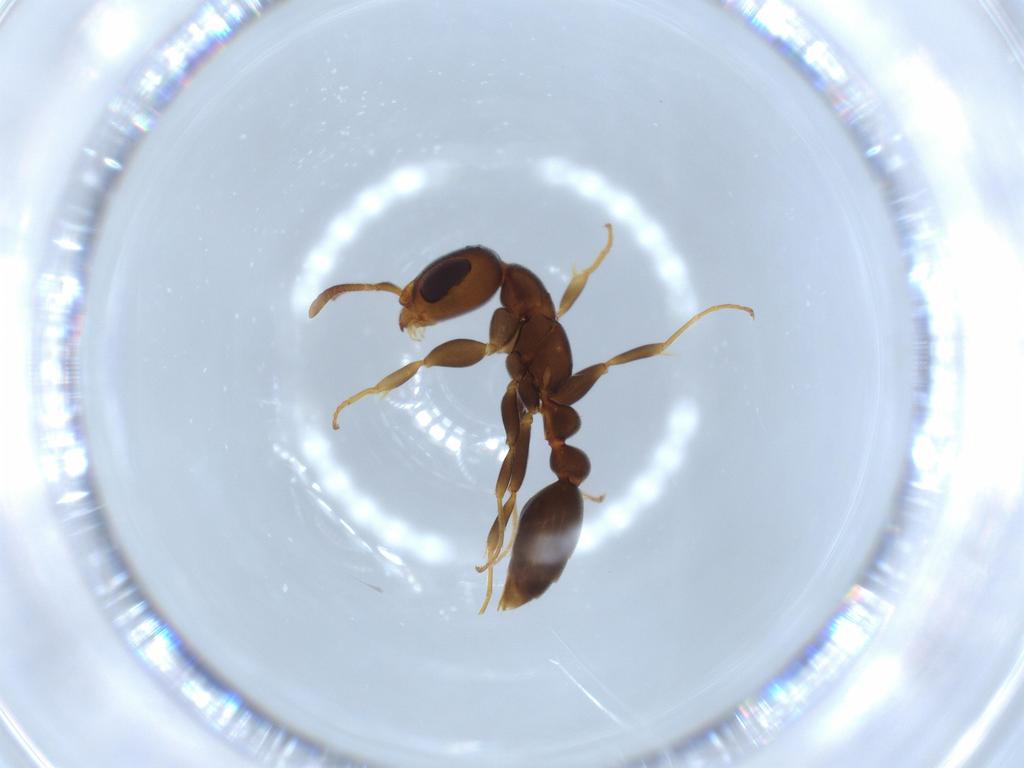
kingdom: Animalia
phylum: Arthropoda
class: Insecta
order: Hymenoptera
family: Formicidae
